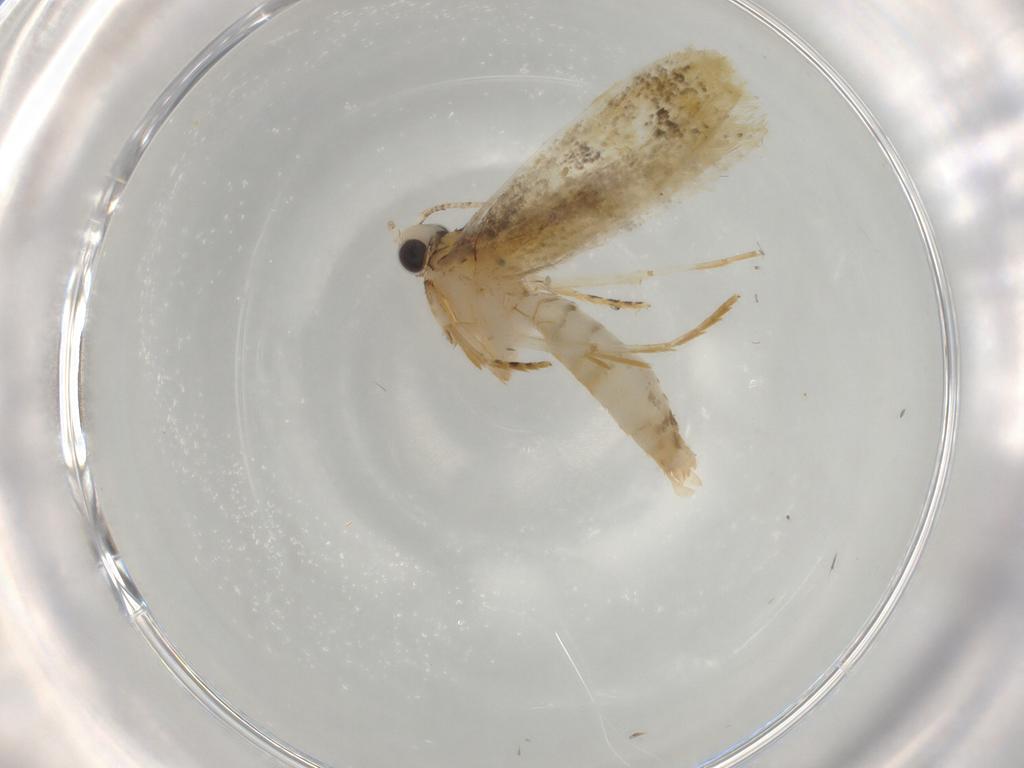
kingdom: Animalia
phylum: Arthropoda
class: Insecta
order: Lepidoptera
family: Tineidae
